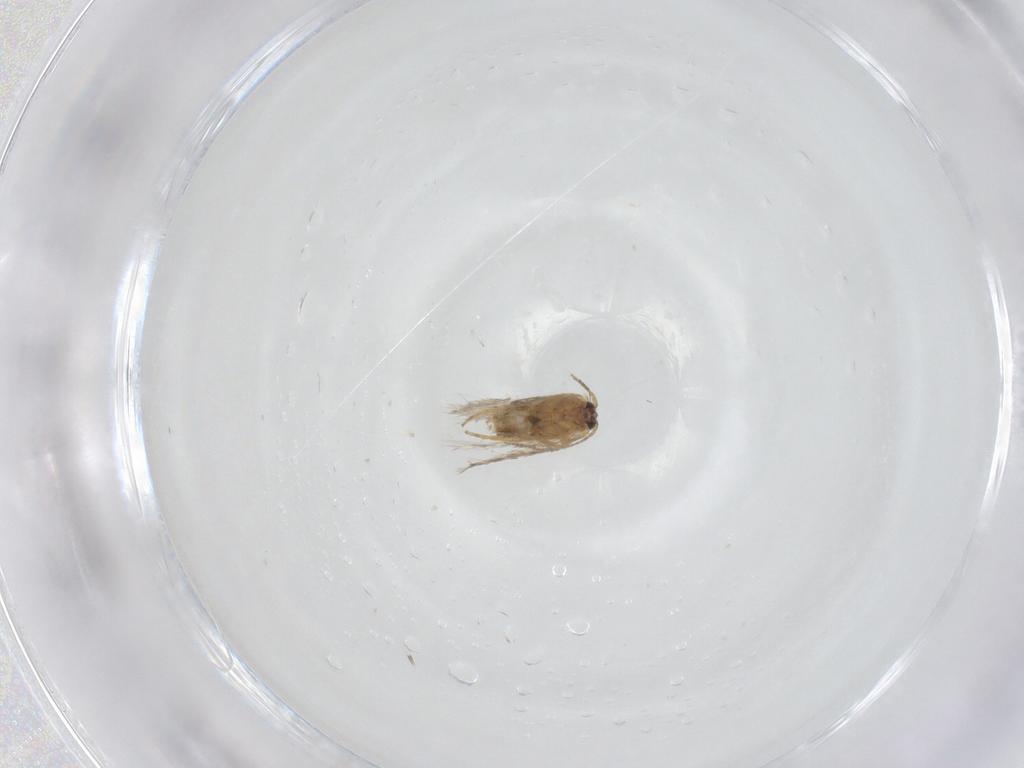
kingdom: Animalia
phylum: Arthropoda
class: Insecta
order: Lepidoptera
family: Nepticulidae
